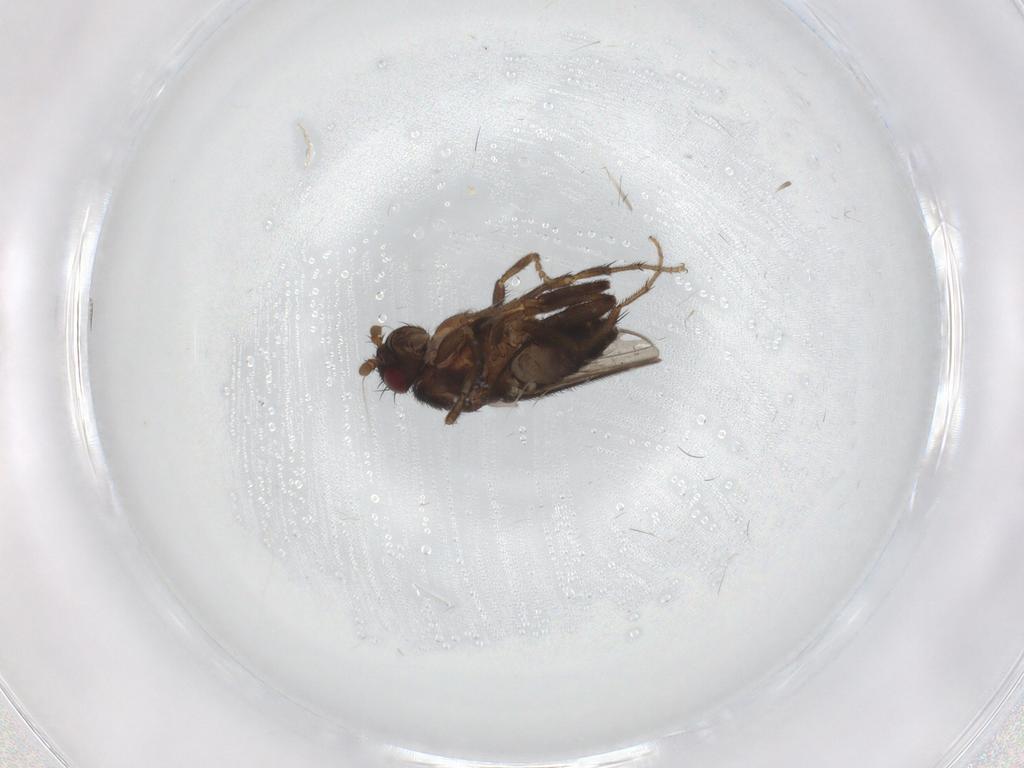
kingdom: Animalia
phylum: Arthropoda
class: Insecta
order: Diptera
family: Sphaeroceridae
